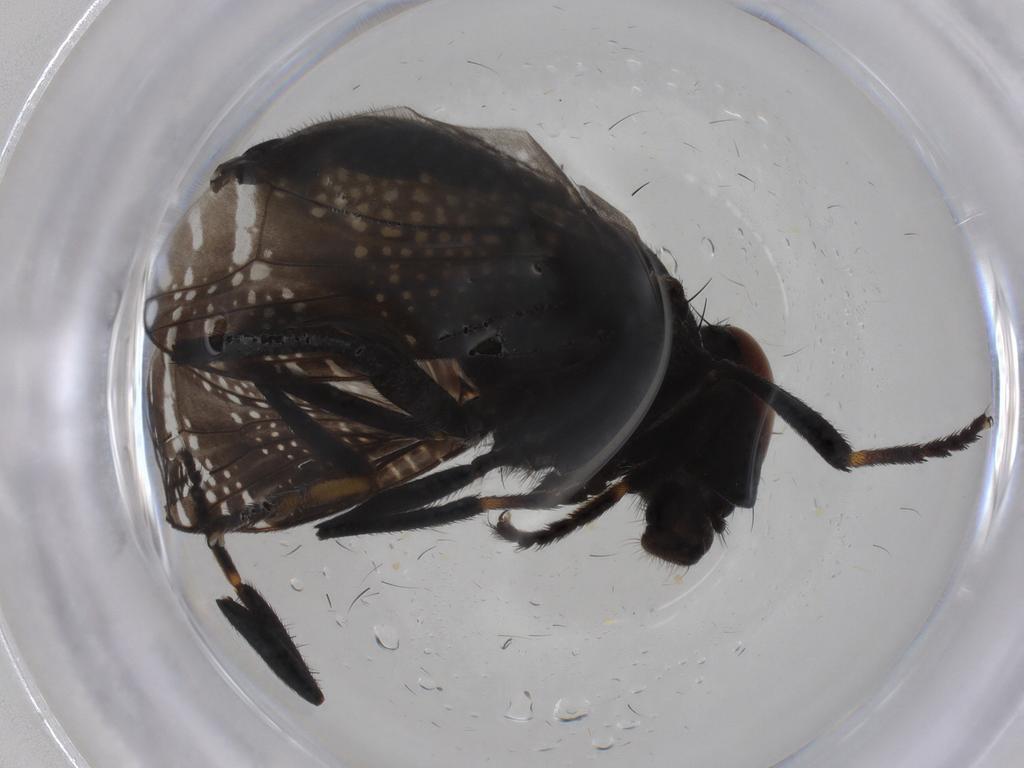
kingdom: Animalia
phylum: Arthropoda
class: Insecta
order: Diptera
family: Platystomatidae
